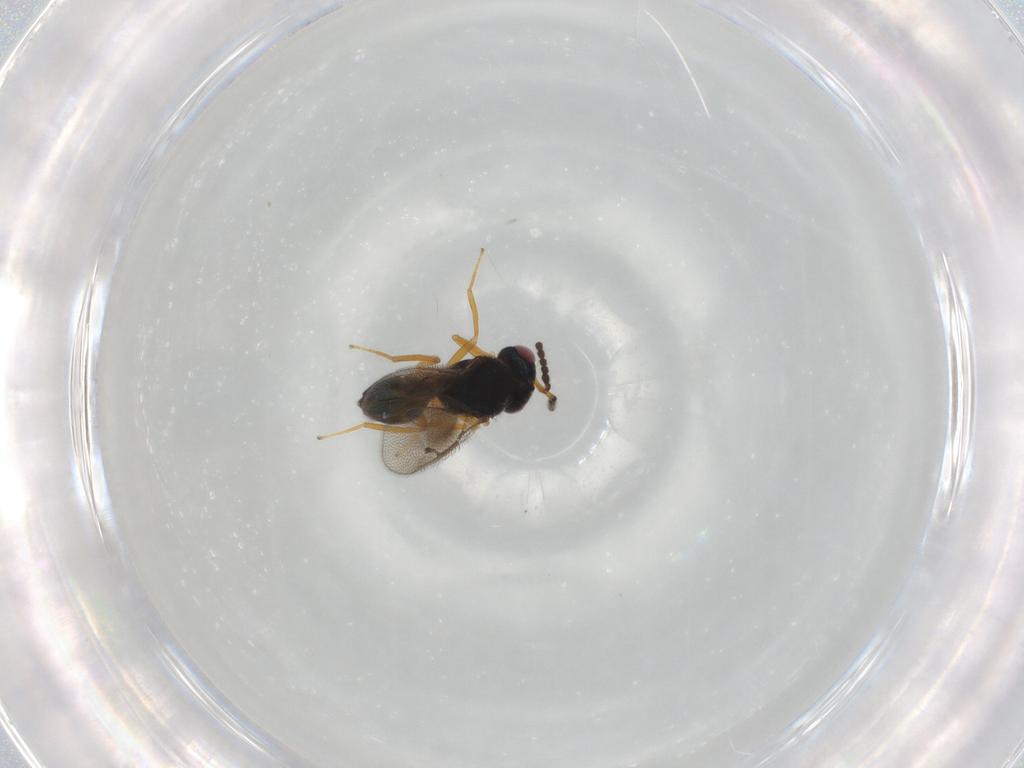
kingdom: Animalia
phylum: Arthropoda
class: Insecta
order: Hymenoptera
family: Pteromalidae
